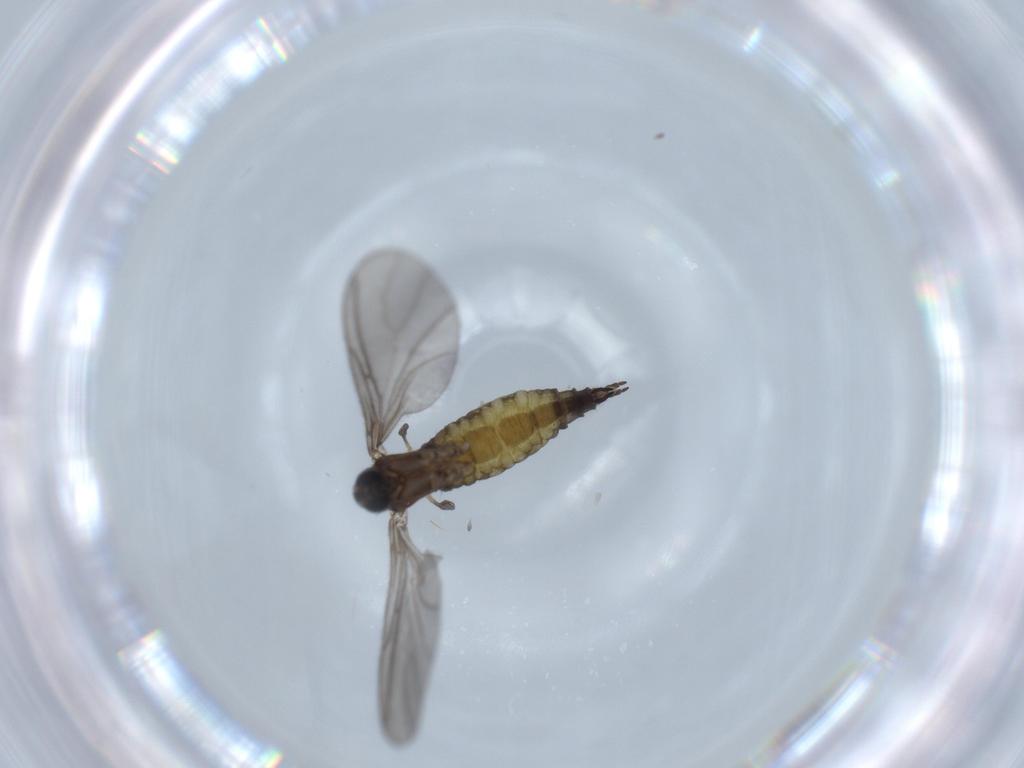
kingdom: Animalia
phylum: Arthropoda
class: Insecta
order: Diptera
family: Sciaridae
